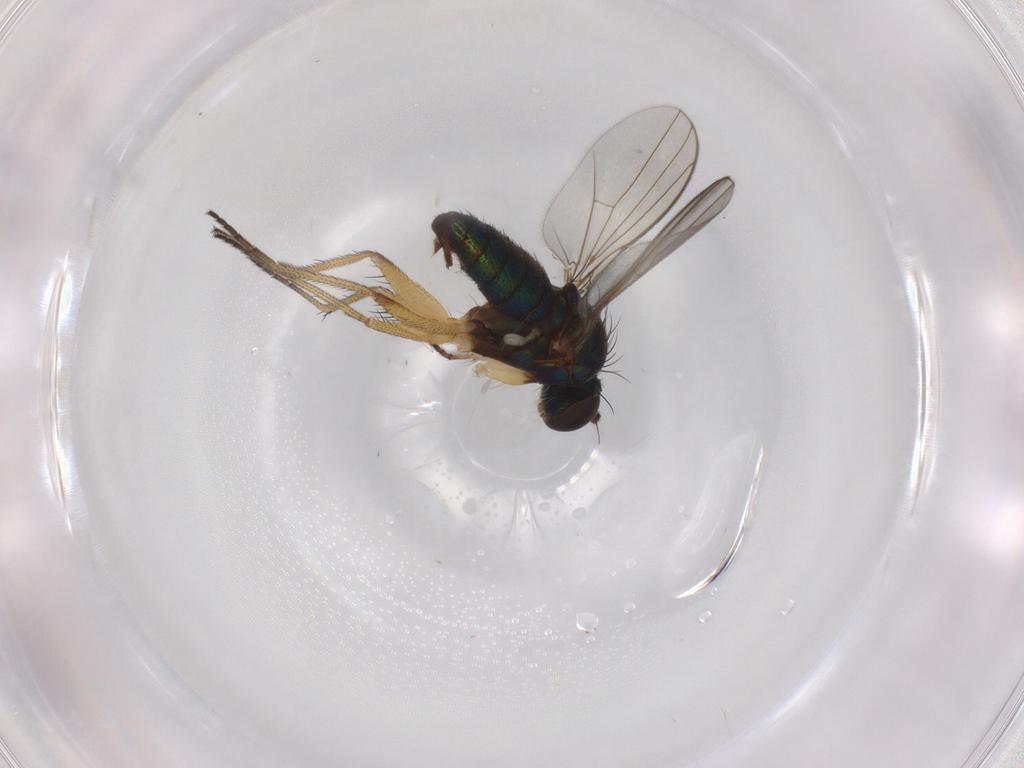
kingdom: Animalia
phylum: Arthropoda
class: Insecta
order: Diptera
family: Dolichopodidae
